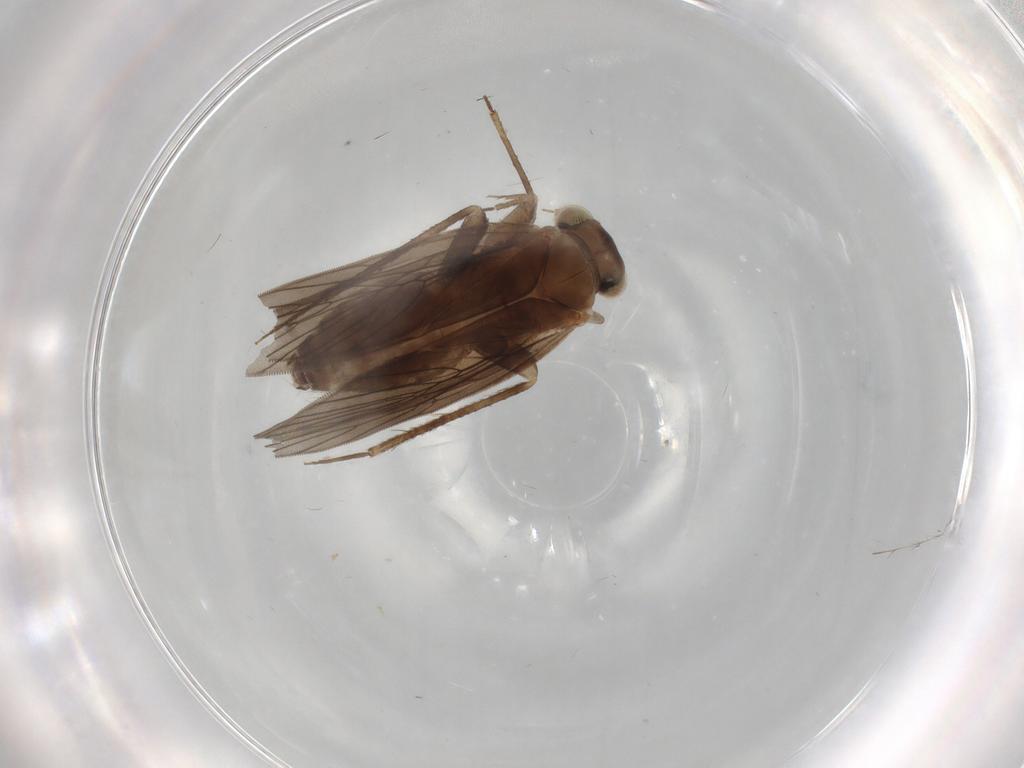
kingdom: Animalia
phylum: Arthropoda
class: Insecta
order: Psocodea
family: Lepidopsocidae
